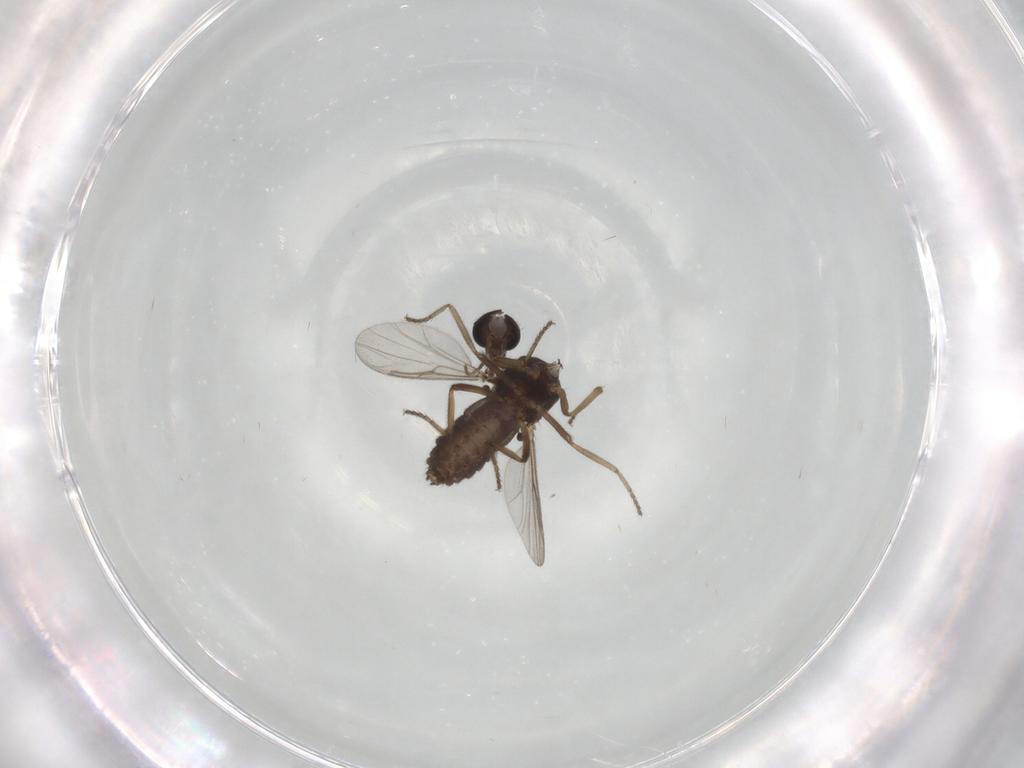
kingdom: Animalia
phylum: Arthropoda
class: Insecta
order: Diptera
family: Ceratopogonidae
